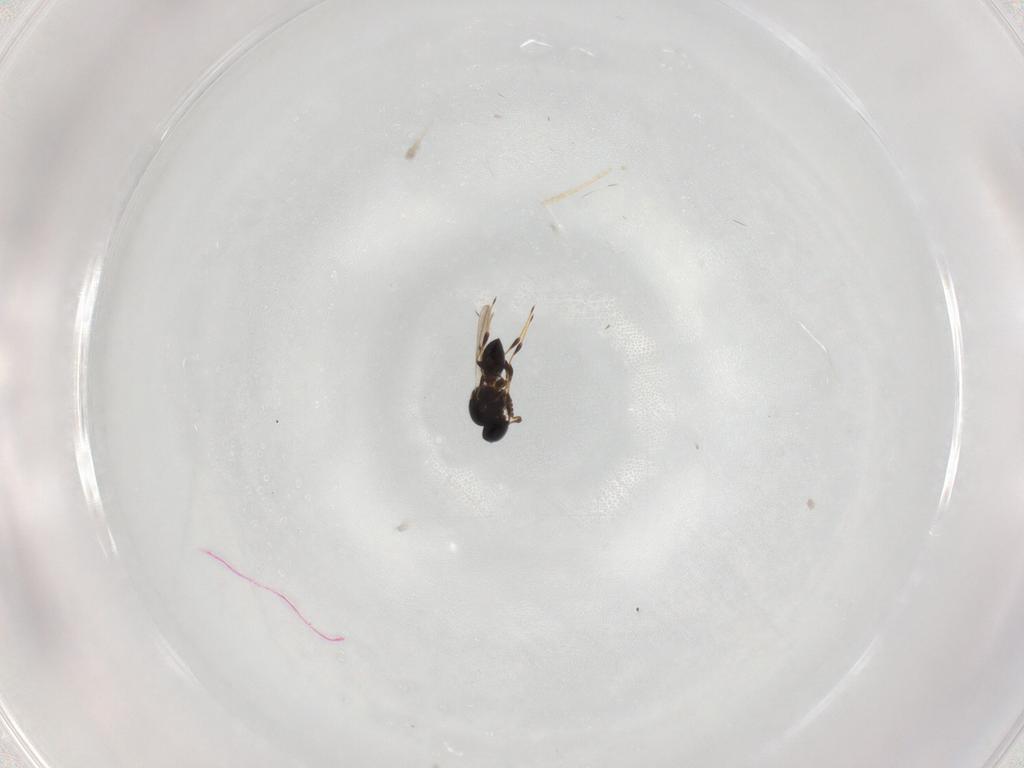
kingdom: Animalia
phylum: Arthropoda
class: Insecta
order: Hymenoptera
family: Platygastridae
